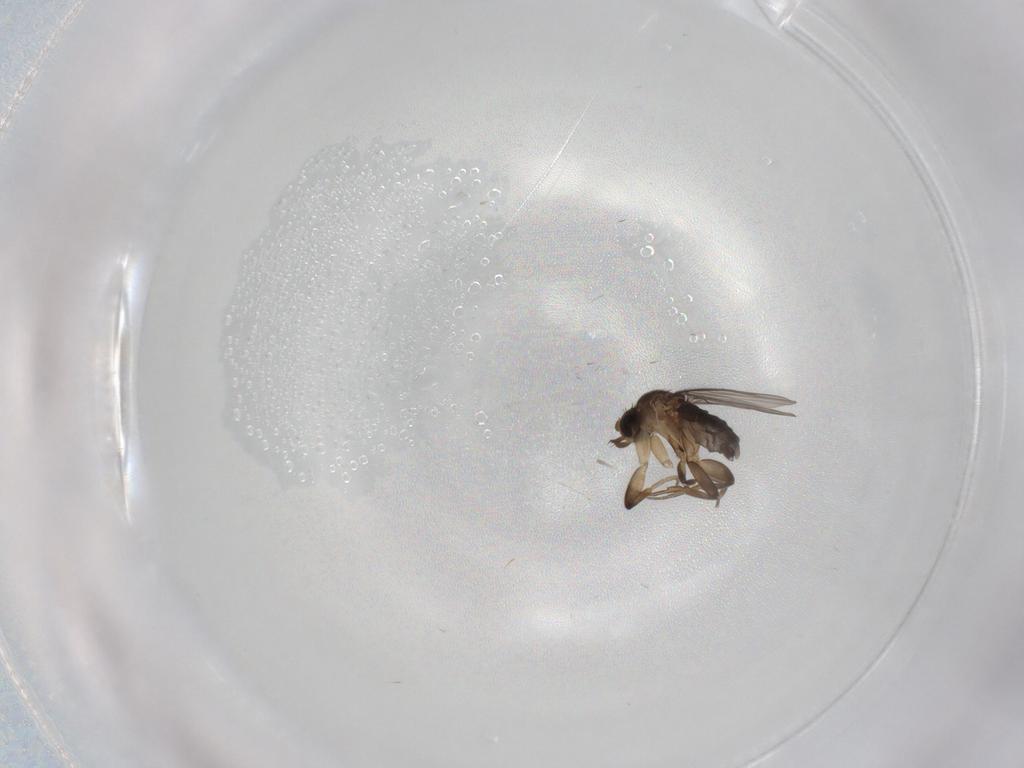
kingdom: Animalia
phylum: Arthropoda
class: Insecta
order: Diptera
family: Phoridae
